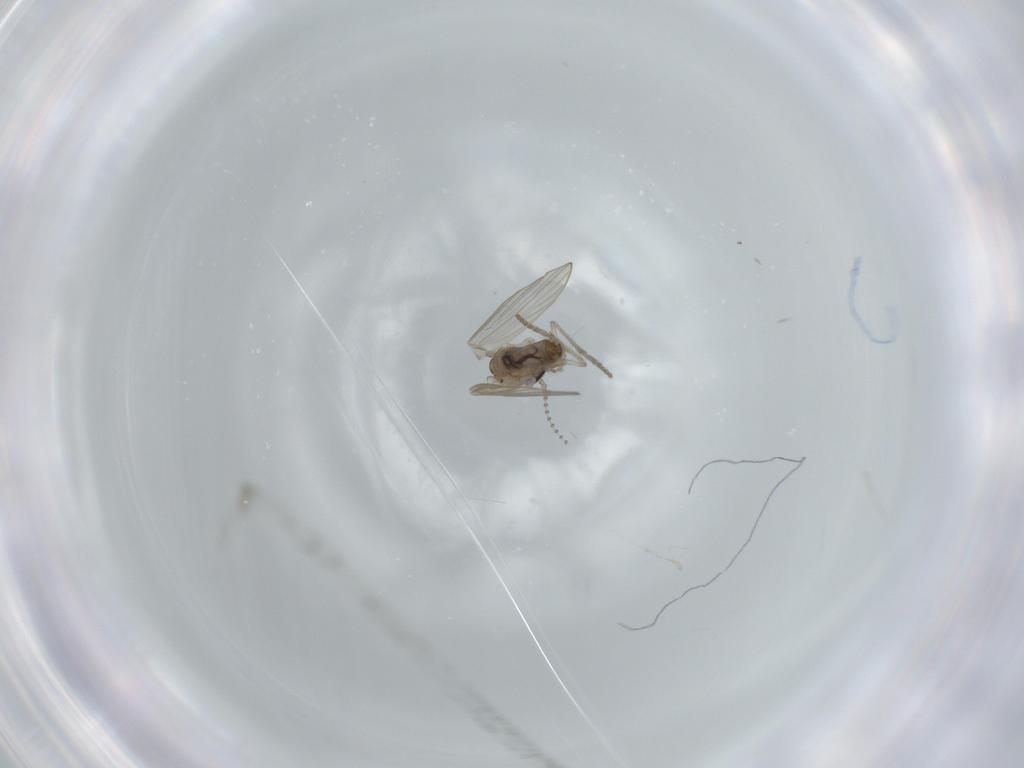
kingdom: Animalia
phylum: Arthropoda
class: Insecta
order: Diptera
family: Psychodidae
